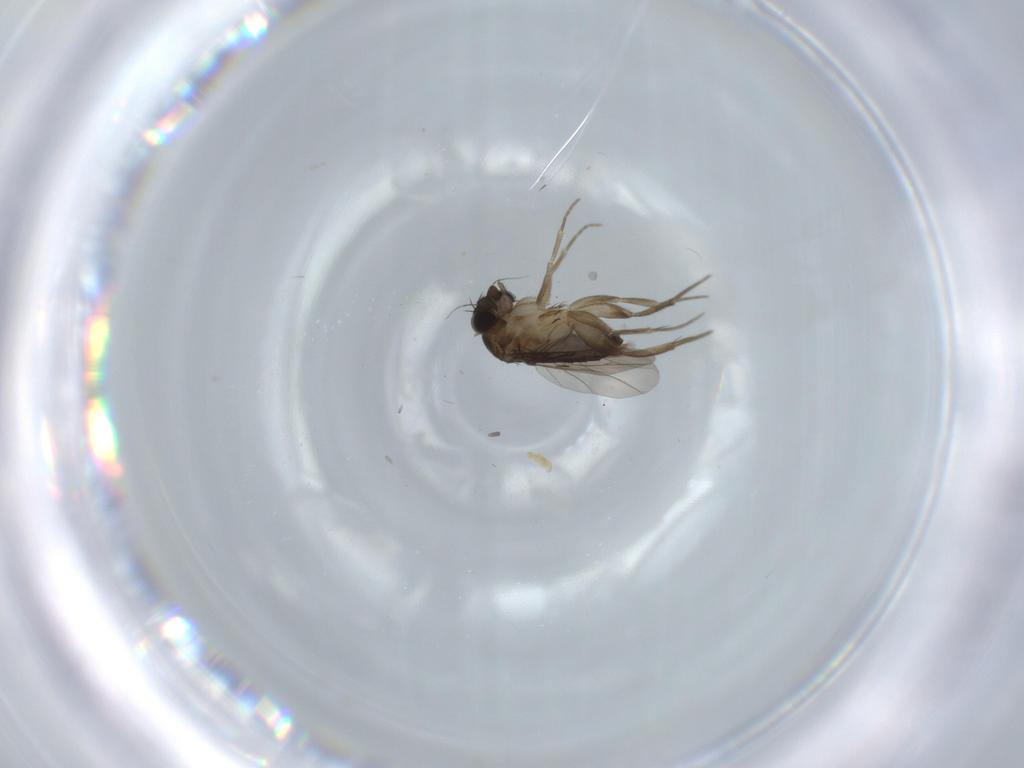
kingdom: Animalia
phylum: Arthropoda
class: Insecta
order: Diptera
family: Phoridae
